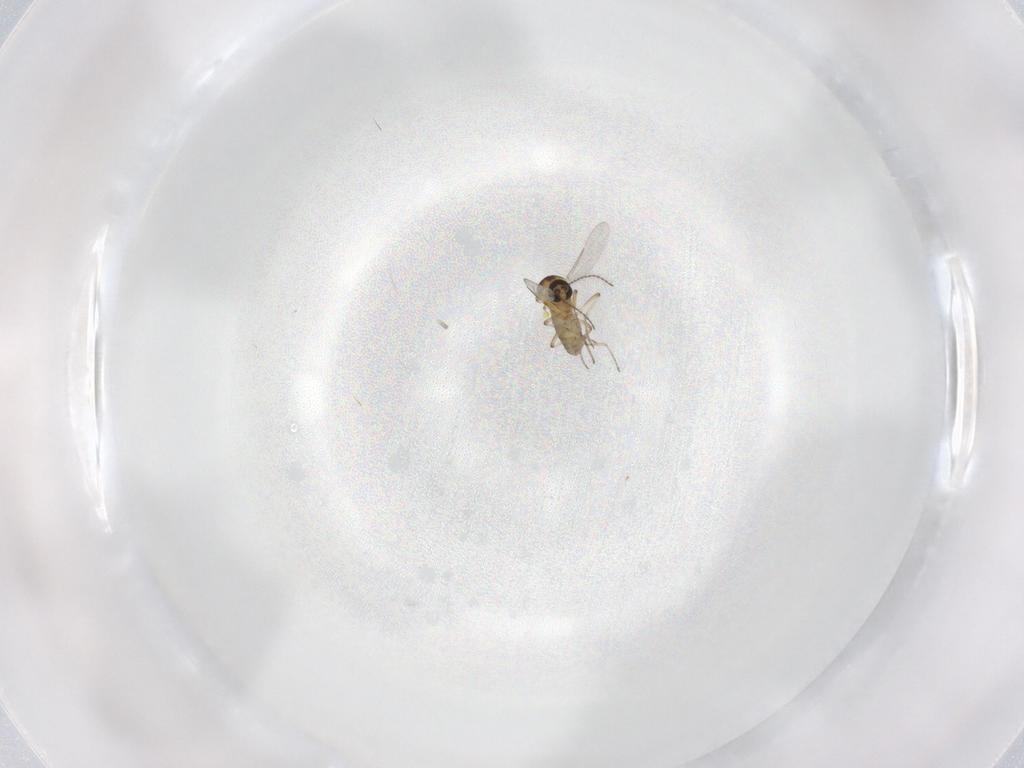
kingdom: Animalia
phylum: Arthropoda
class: Insecta
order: Diptera
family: Ceratopogonidae
